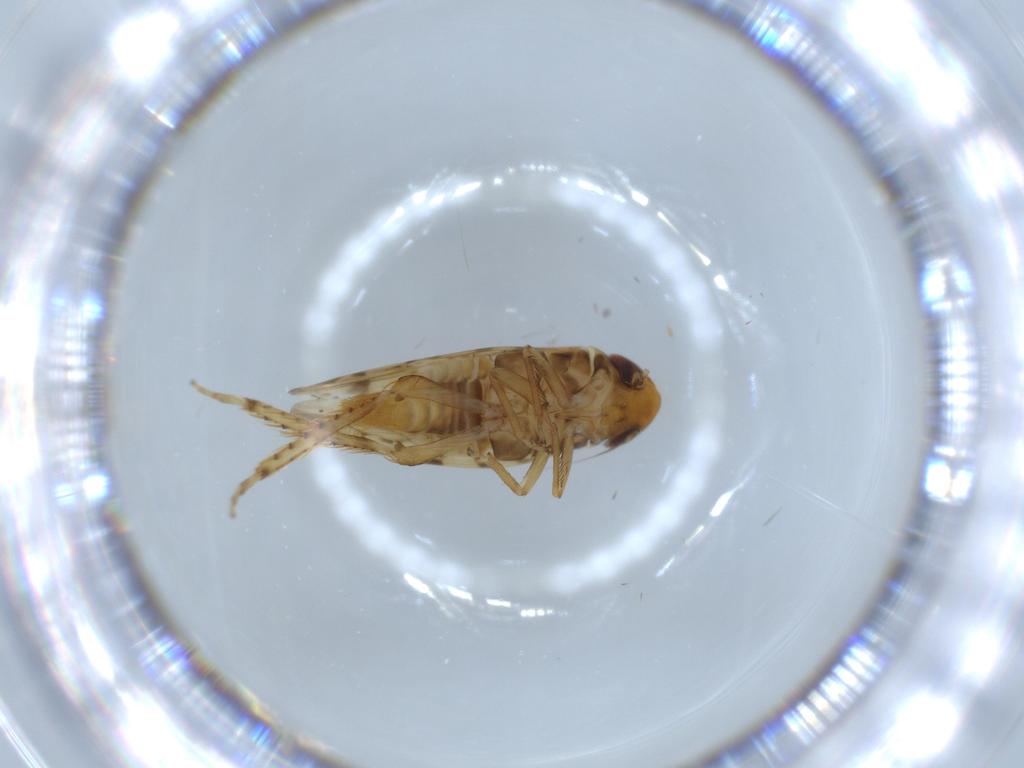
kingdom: Animalia
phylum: Arthropoda
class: Insecta
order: Hemiptera
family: Cicadellidae
